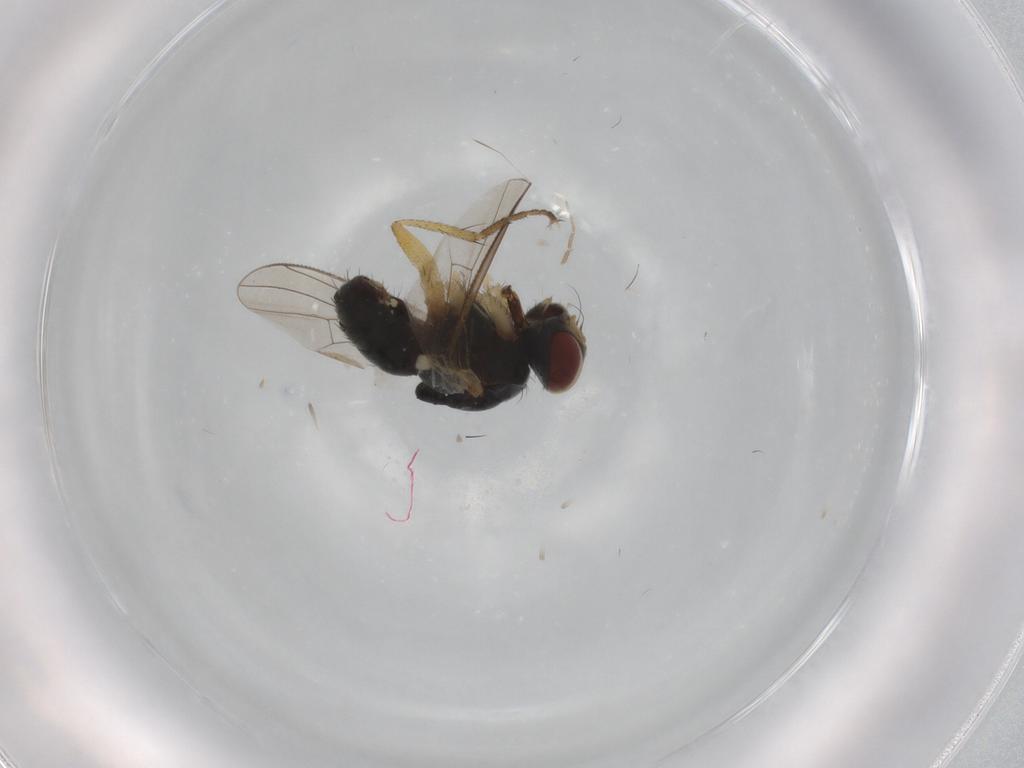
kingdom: Animalia
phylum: Arthropoda
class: Insecta
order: Diptera
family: Muscidae
